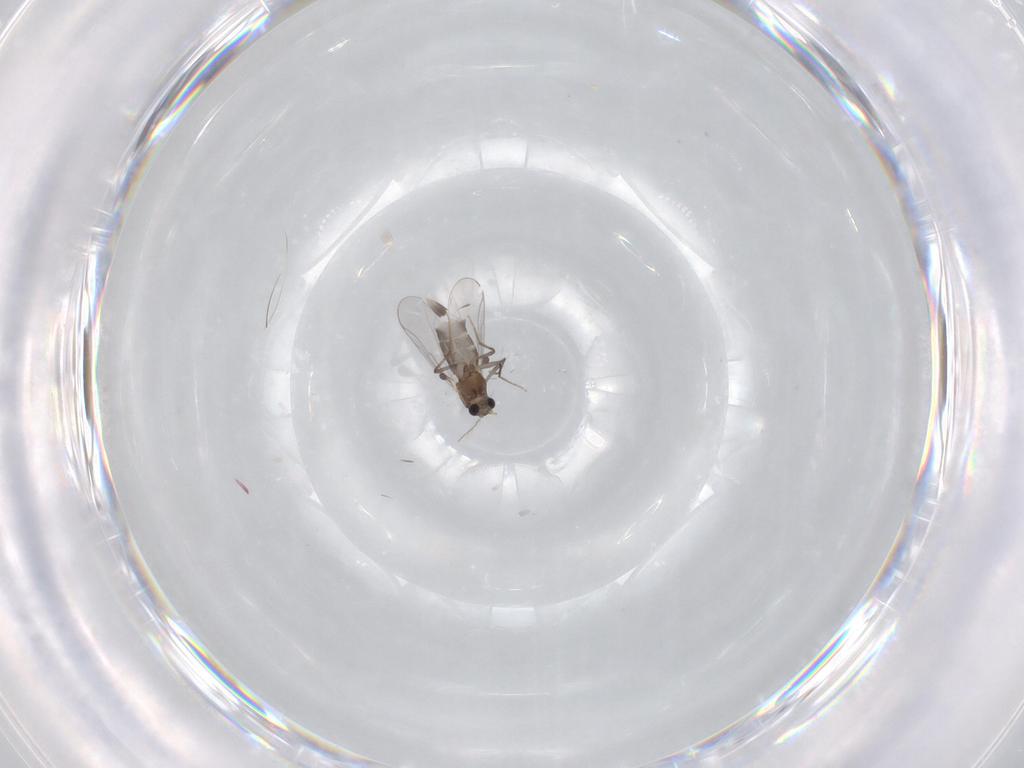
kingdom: Animalia
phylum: Arthropoda
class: Insecta
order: Diptera
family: Chironomidae
